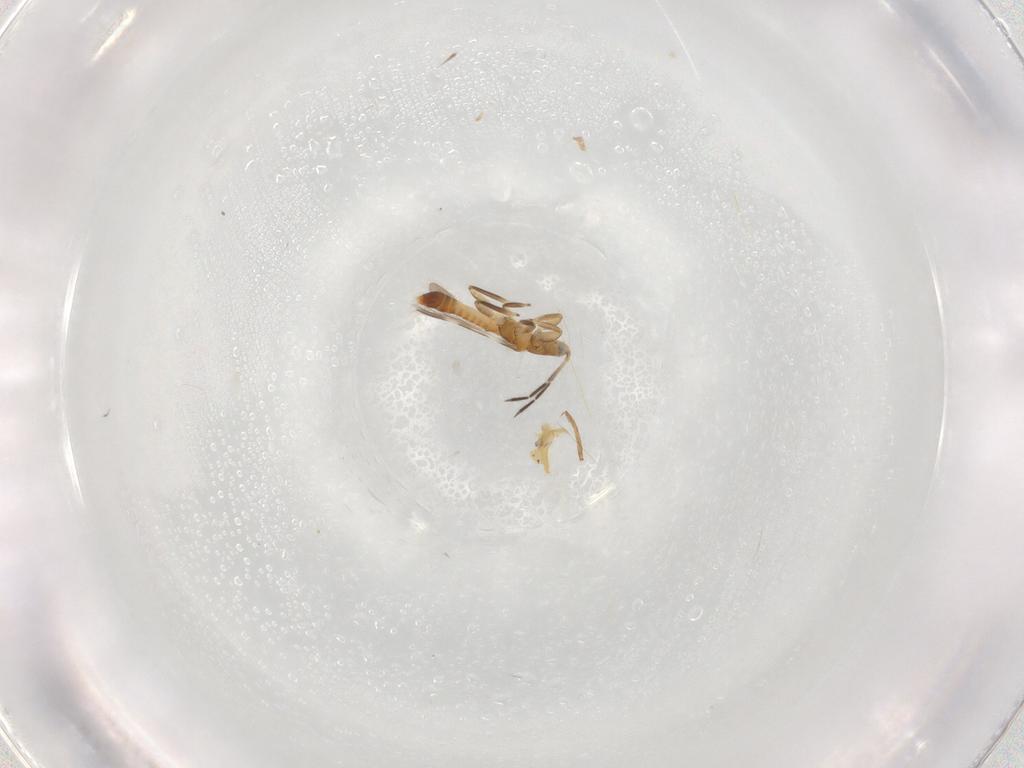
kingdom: Animalia
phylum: Arthropoda
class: Insecta
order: Thysanoptera
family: Aeolothripidae
